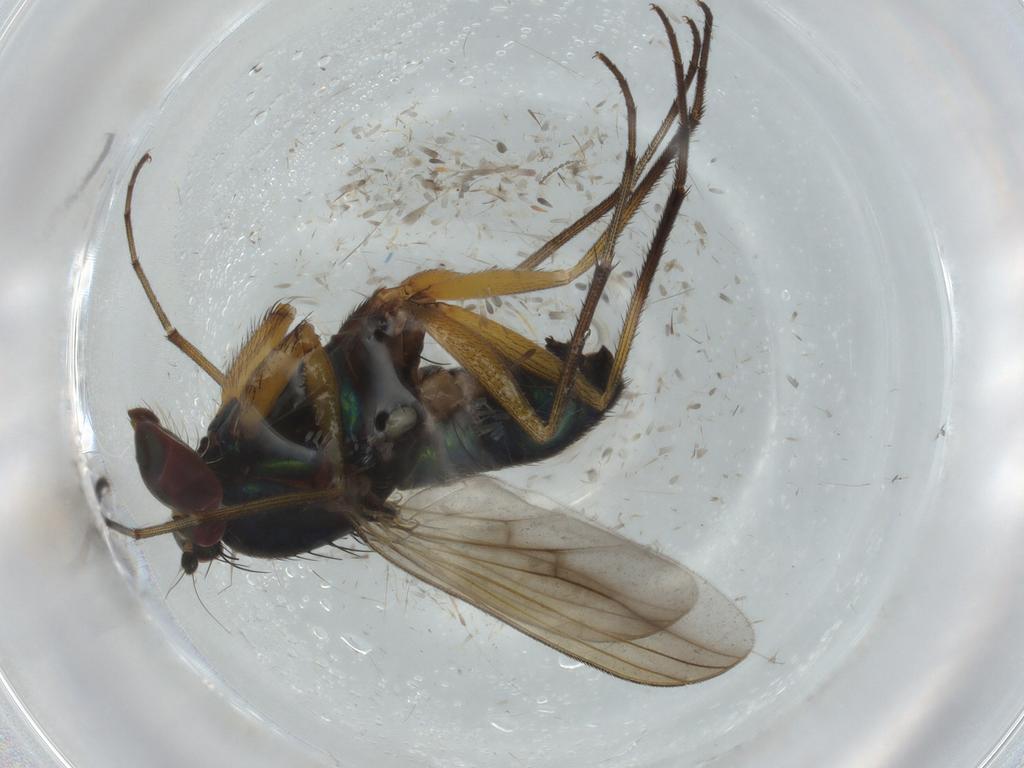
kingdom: Animalia
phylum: Arthropoda
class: Insecta
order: Diptera
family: Dolichopodidae
